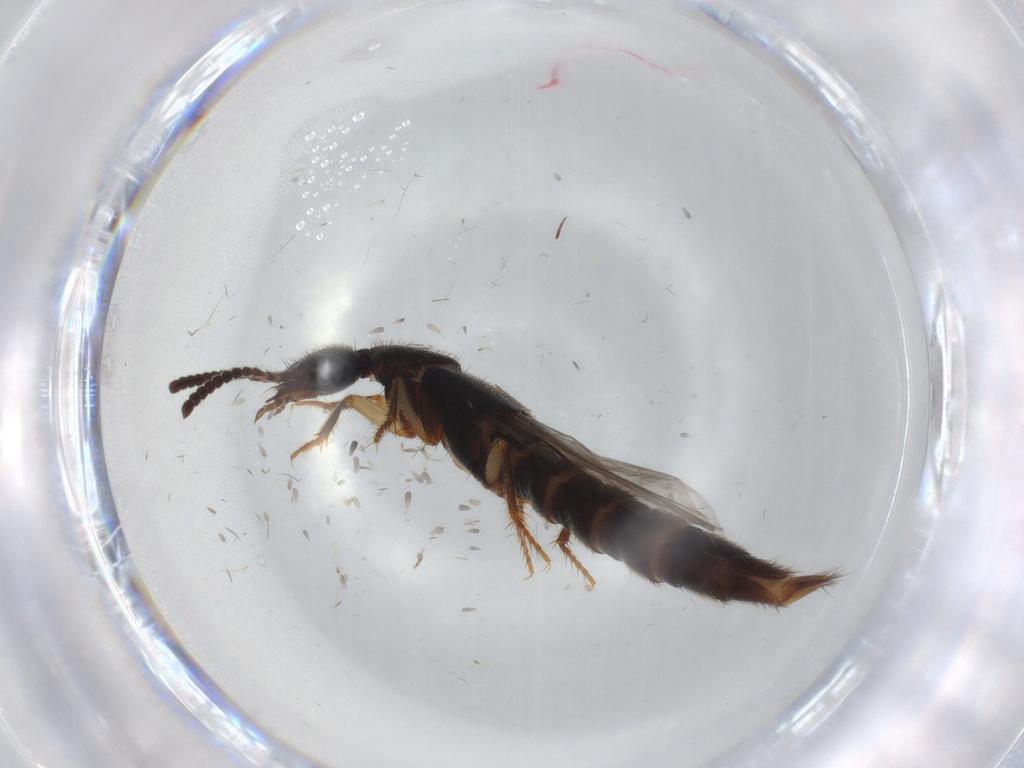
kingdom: Animalia
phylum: Arthropoda
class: Insecta
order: Coleoptera
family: Staphylinidae
